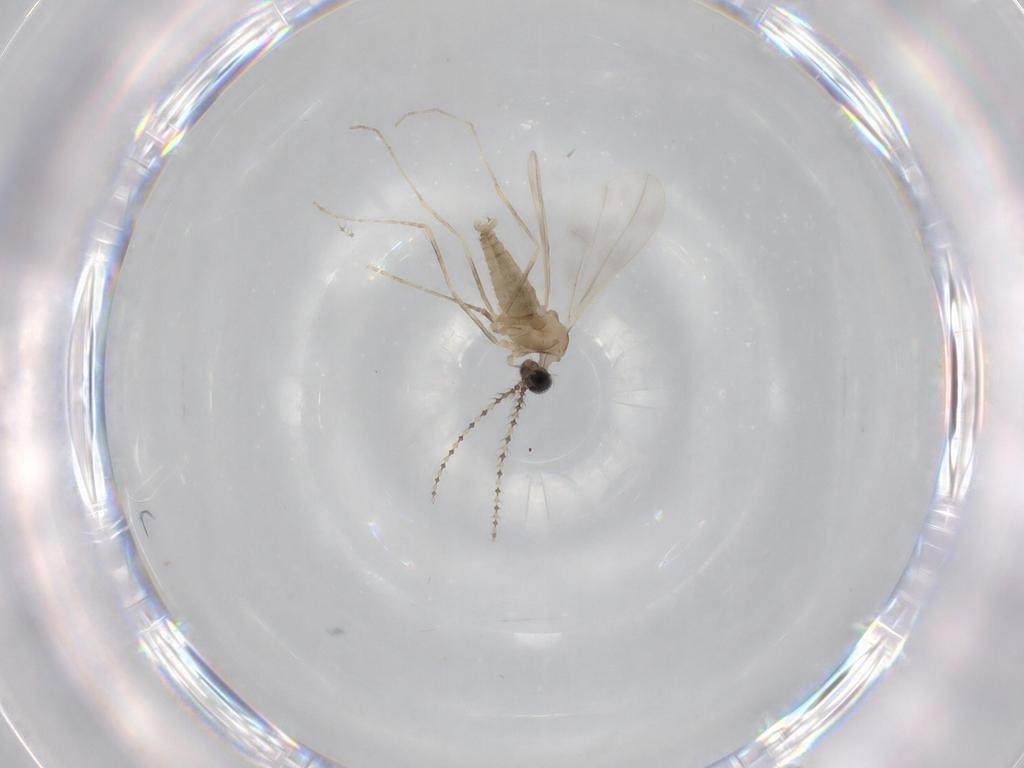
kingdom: Animalia
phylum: Arthropoda
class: Insecta
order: Diptera
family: Cecidomyiidae
